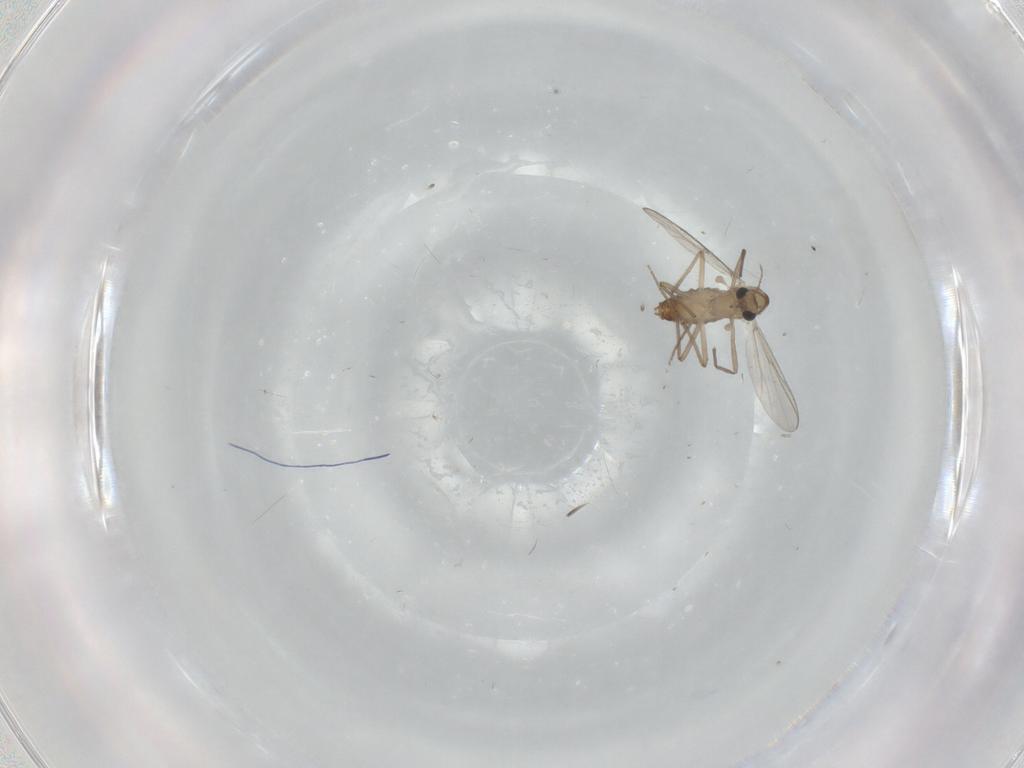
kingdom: Animalia
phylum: Arthropoda
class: Insecta
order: Diptera
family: Chironomidae
